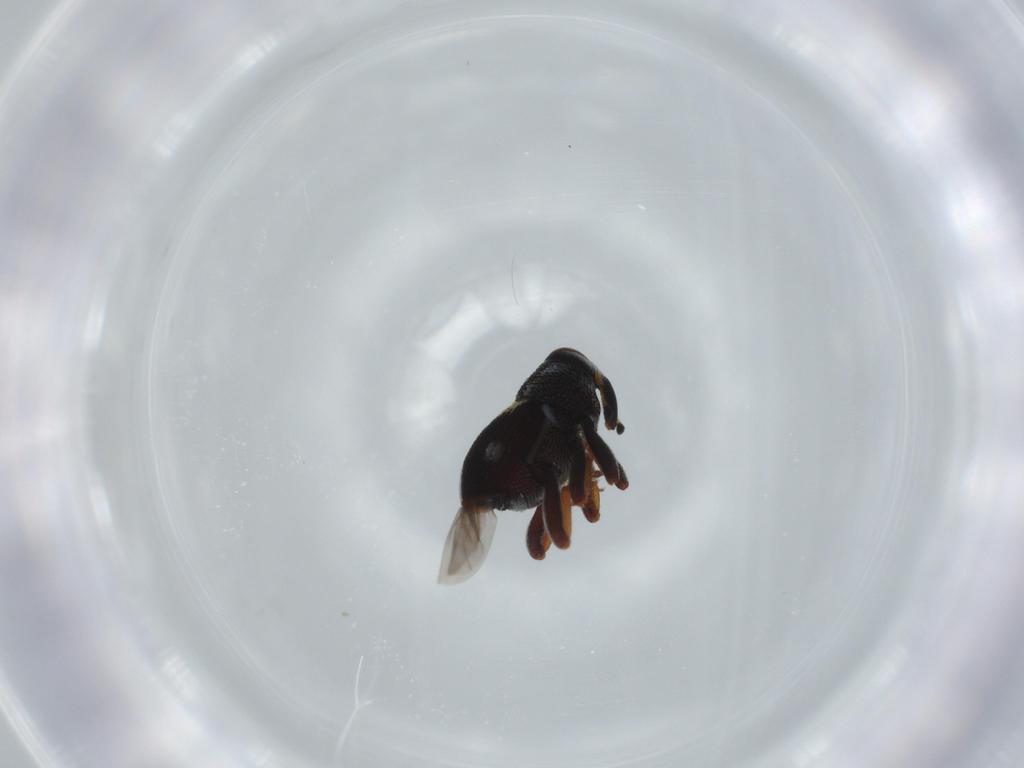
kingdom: Animalia
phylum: Arthropoda
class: Insecta
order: Coleoptera
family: Curculionidae
